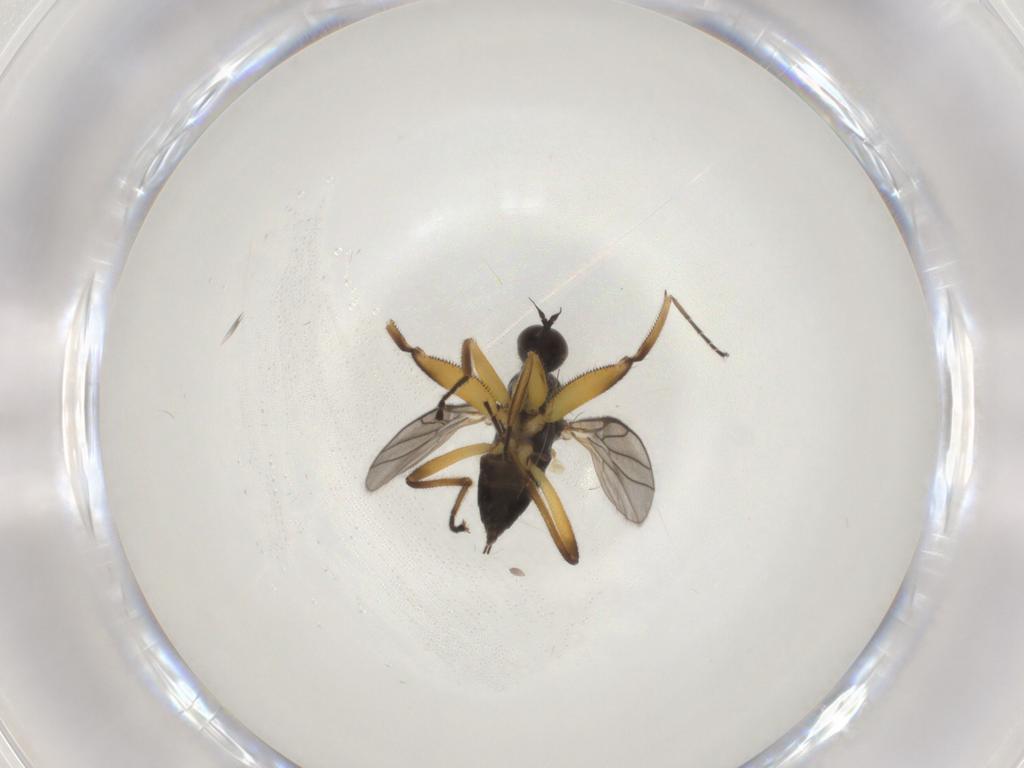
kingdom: Animalia
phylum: Arthropoda
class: Insecta
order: Diptera
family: Hybotidae
